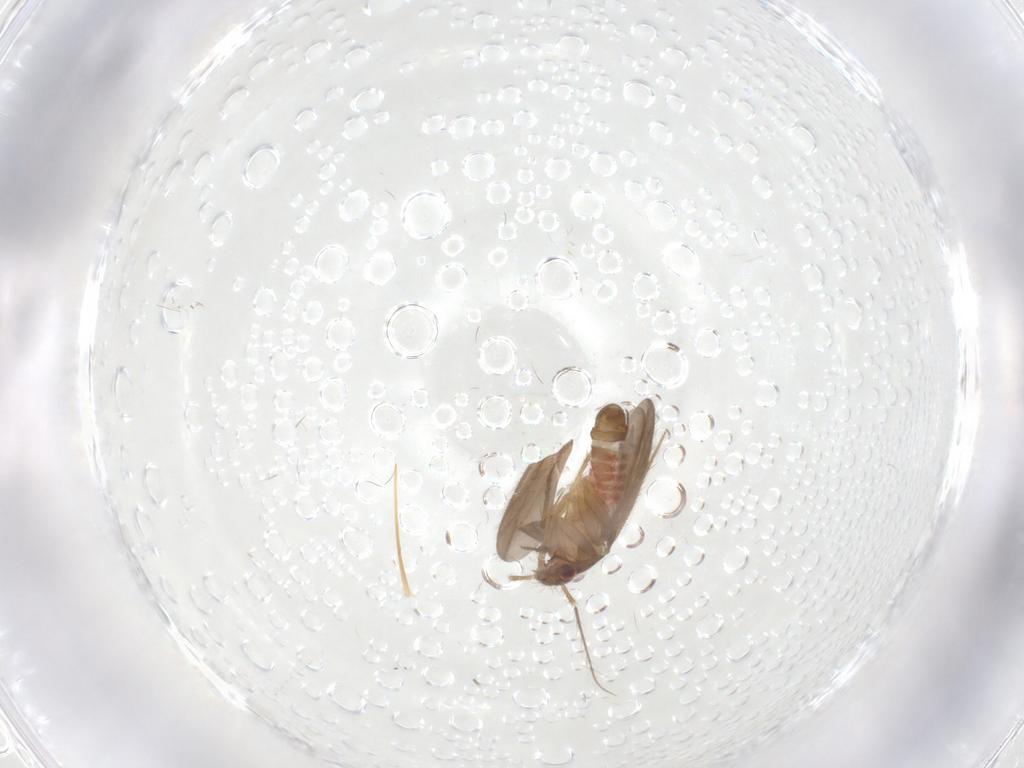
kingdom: Animalia
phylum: Arthropoda
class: Insecta
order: Hemiptera
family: Ceratocombidae
